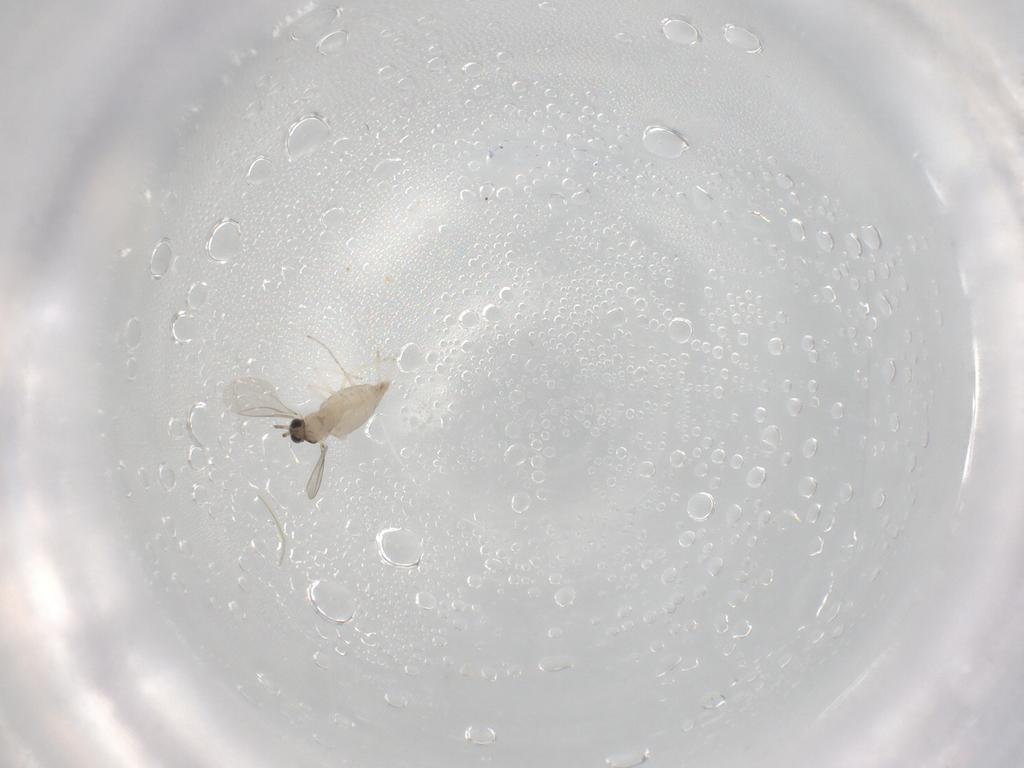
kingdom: Animalia
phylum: Arthropoda
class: Insecta
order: Diptera
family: Cecidomyiidae
